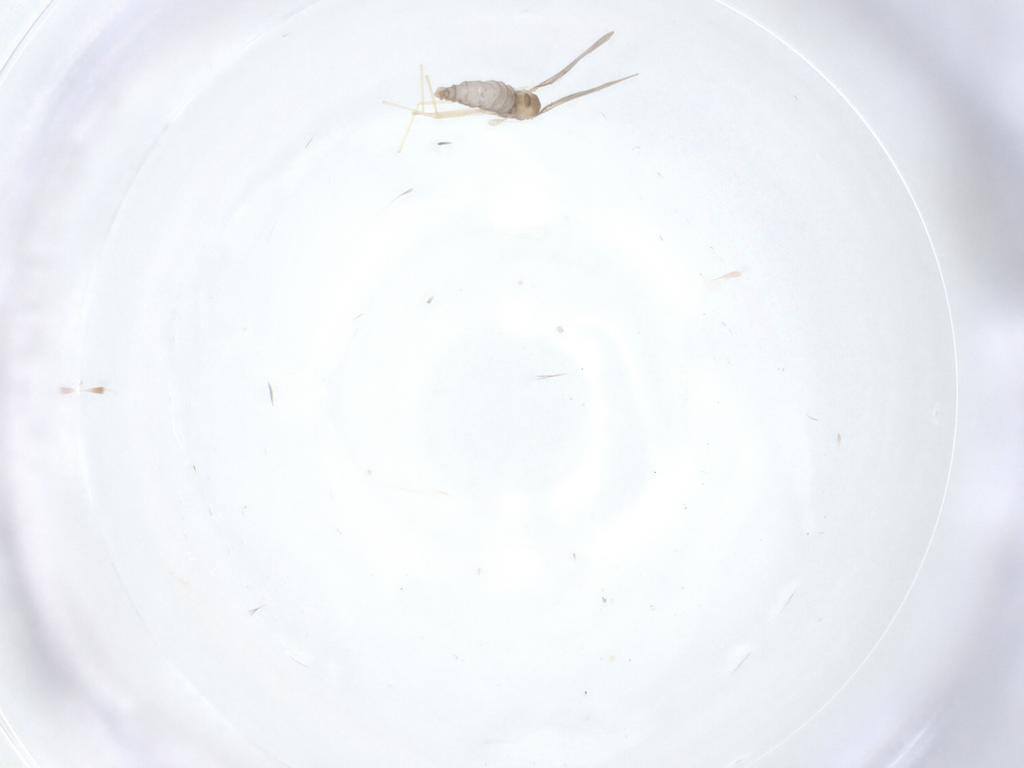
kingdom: Animalia
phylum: Arthropoda
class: Insecta
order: Diptera
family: Cecidomyiidae
